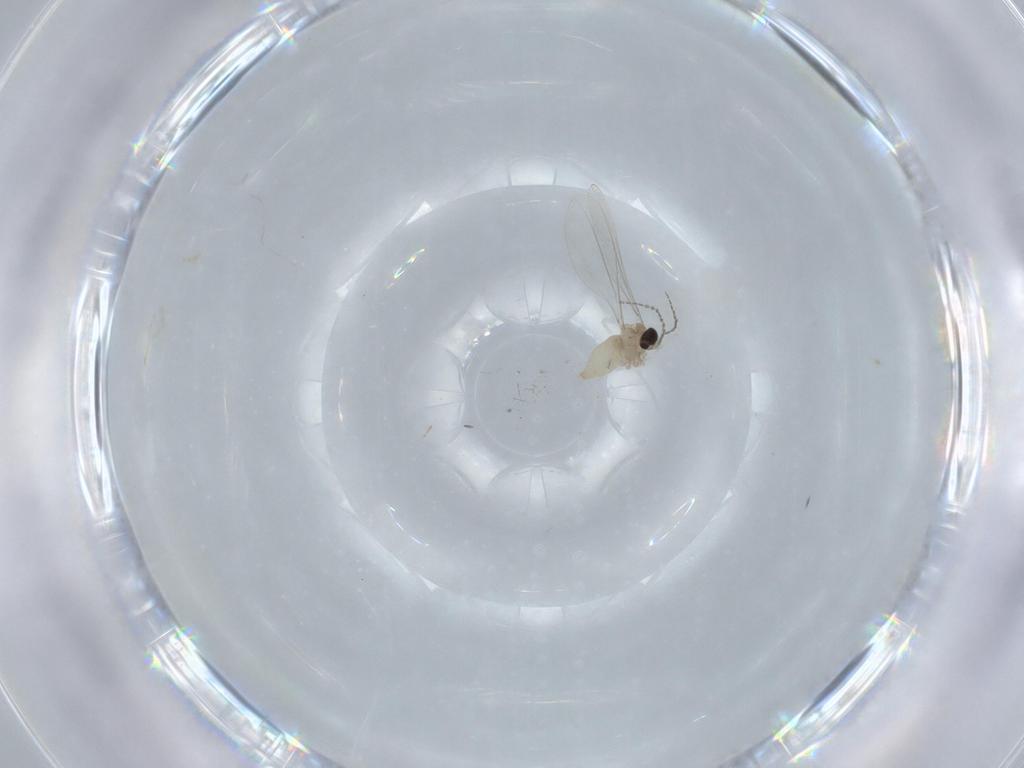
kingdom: Animalia
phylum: Arthropoda
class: Insecta
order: Diptera
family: Cecidomyiidae
